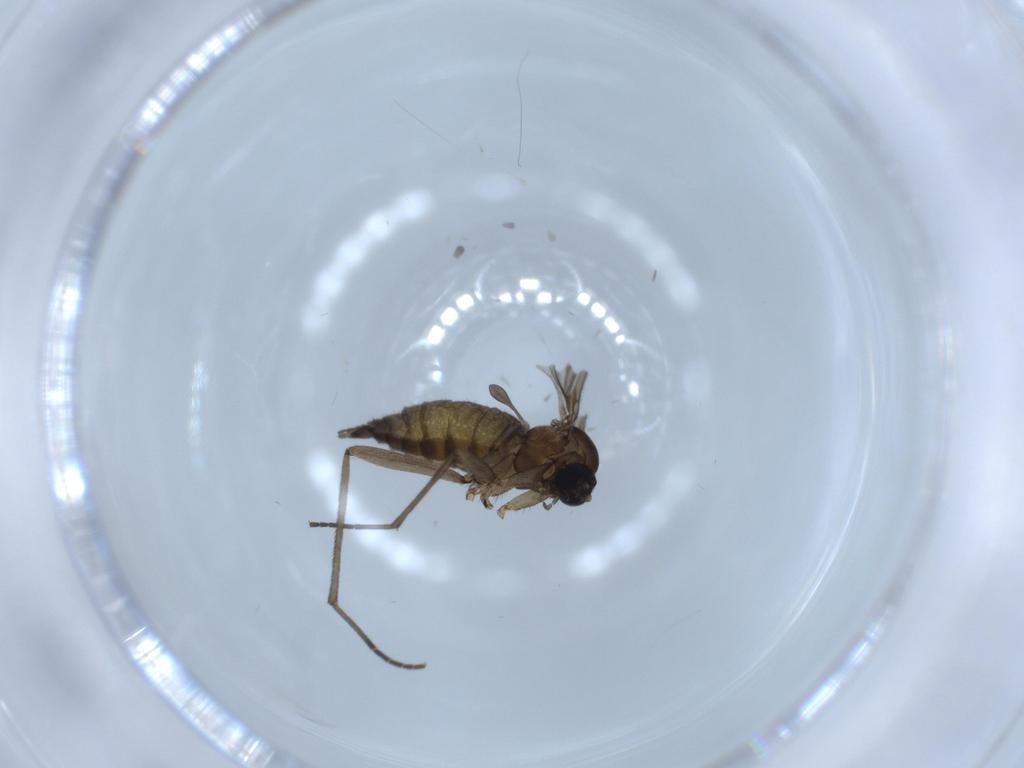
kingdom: Animalia
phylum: Arthropoda
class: Insecta
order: Diptera
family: Sciaridae
